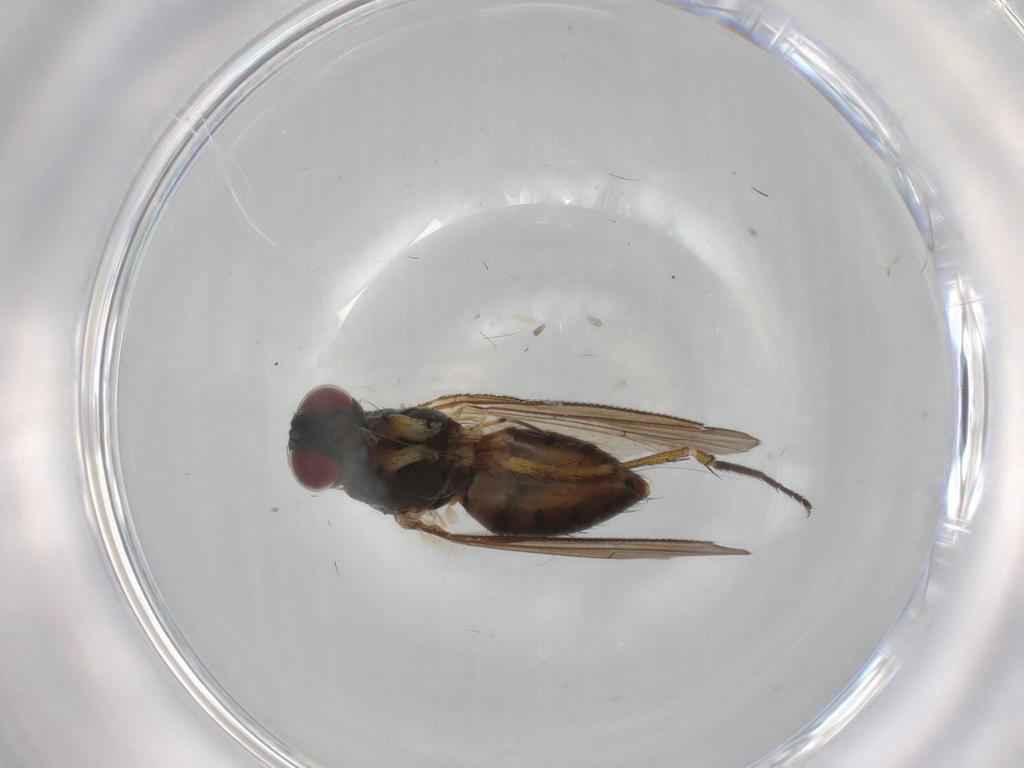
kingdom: Animalia
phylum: Arthropoda
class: Insecta
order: Diptera
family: Muscidae
